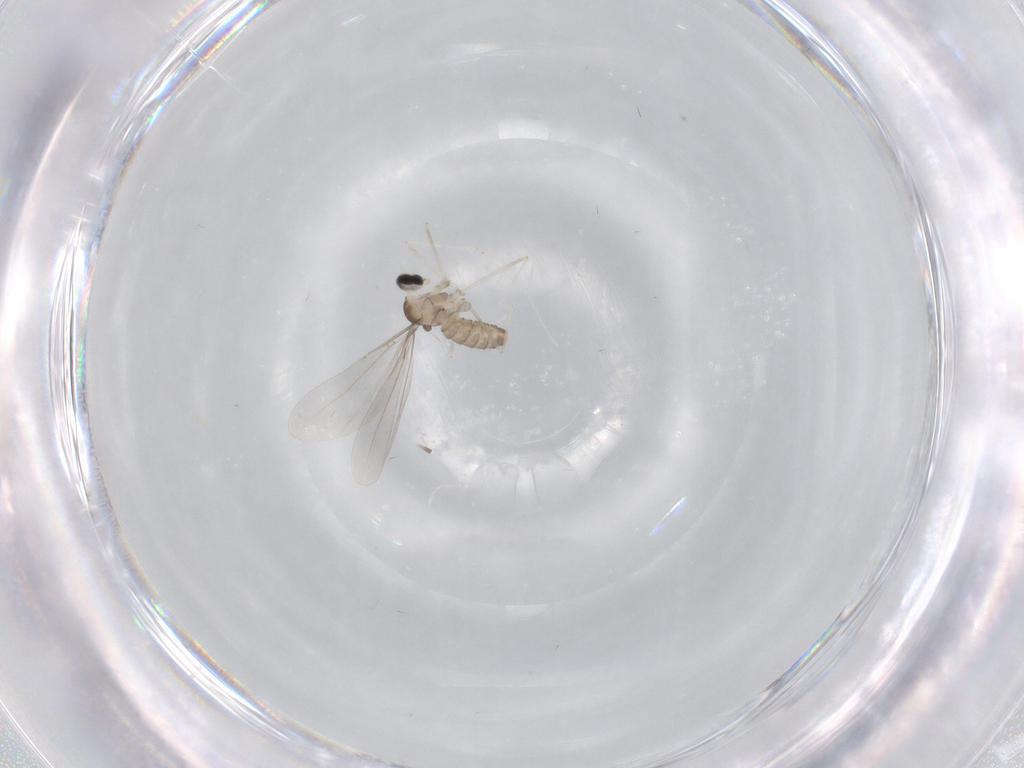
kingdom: Animalia
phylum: Arthropoda
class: Insecta
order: Diptera
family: Cecidomyiidae
